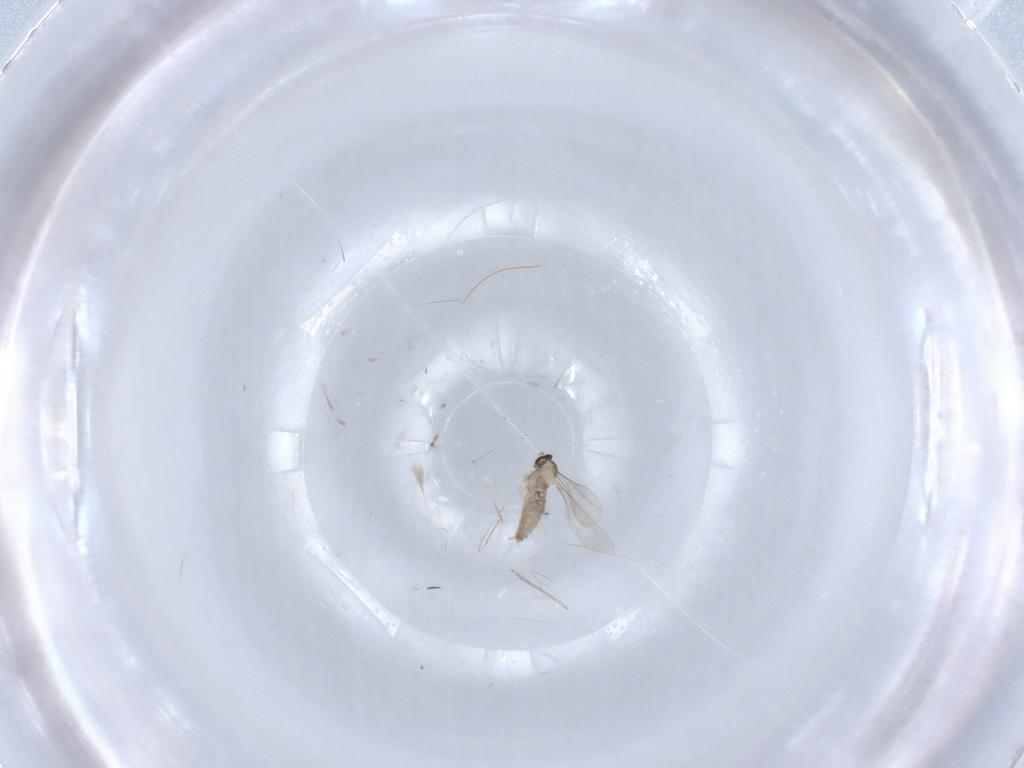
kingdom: Animalia
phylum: Arthropoda
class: Insecta
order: Diptera
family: Cecidomyiidae
